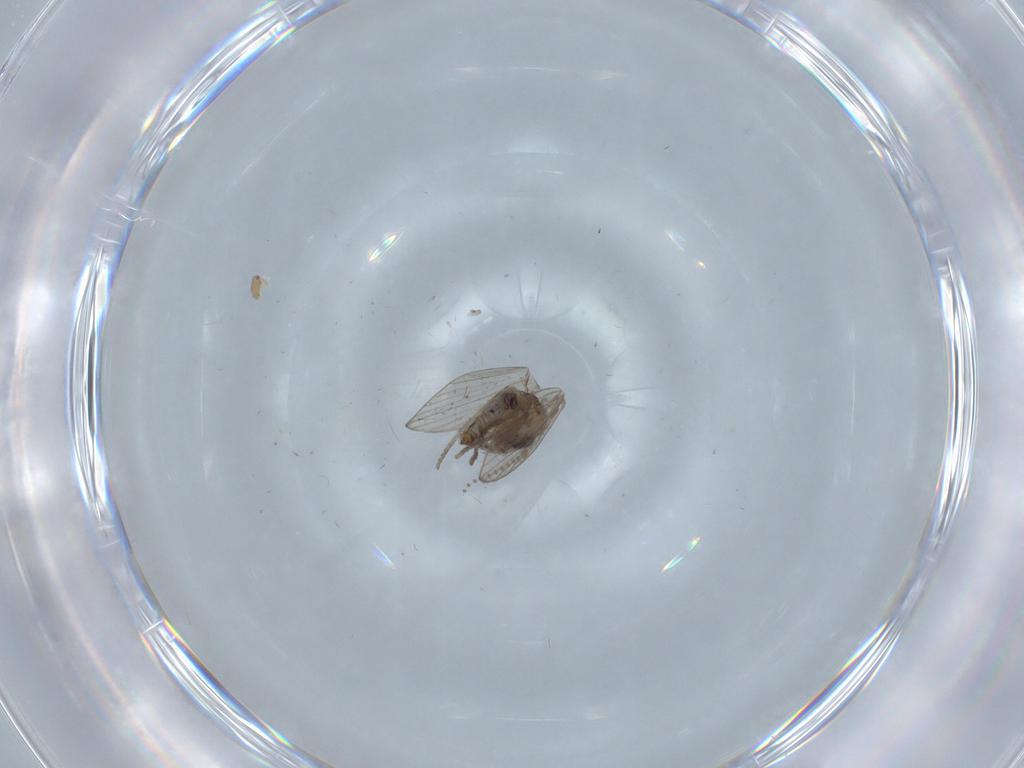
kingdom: Animalia
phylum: Arthropoda
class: Insecta
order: Diptera
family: Psychodidae
